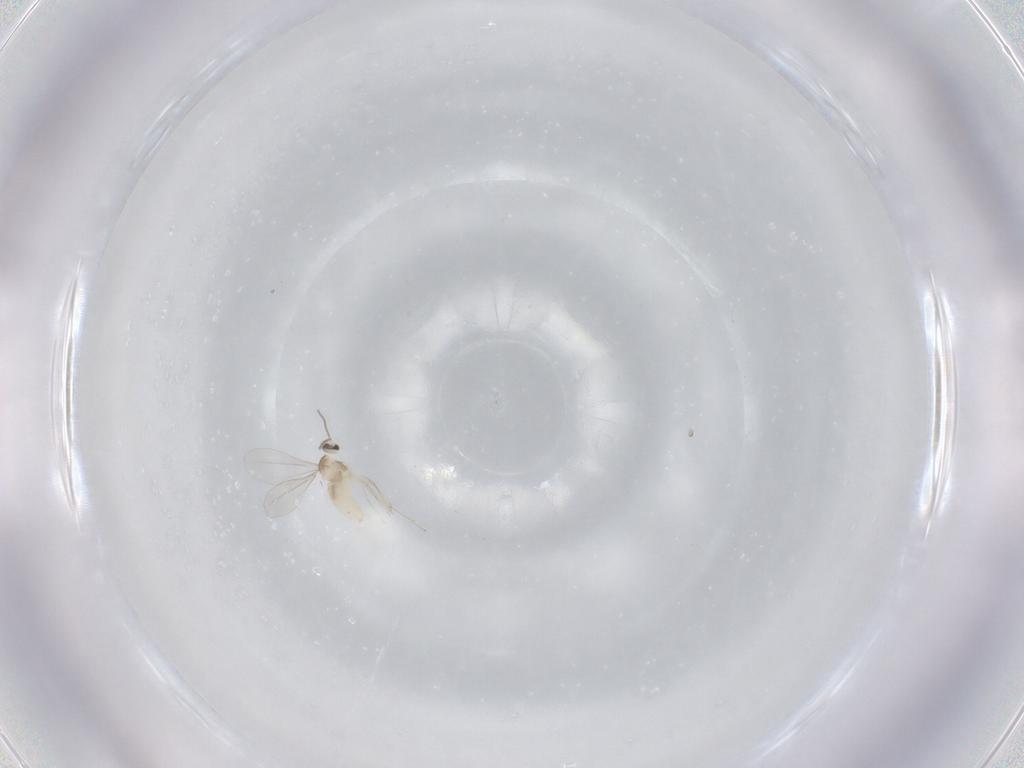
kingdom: Animalia
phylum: Arthropoda
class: Insecta
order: Diptera
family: Cecidomyiidae
